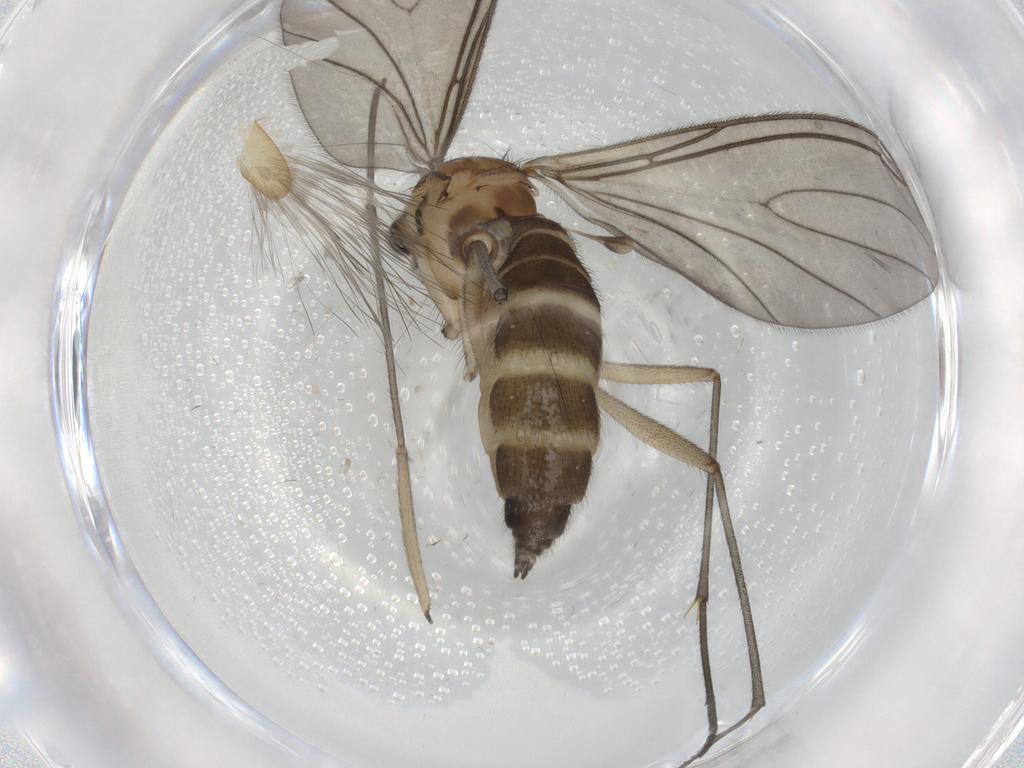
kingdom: Animalia
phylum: Arthropoda
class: Insecta
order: Diptera
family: Sciaridae
